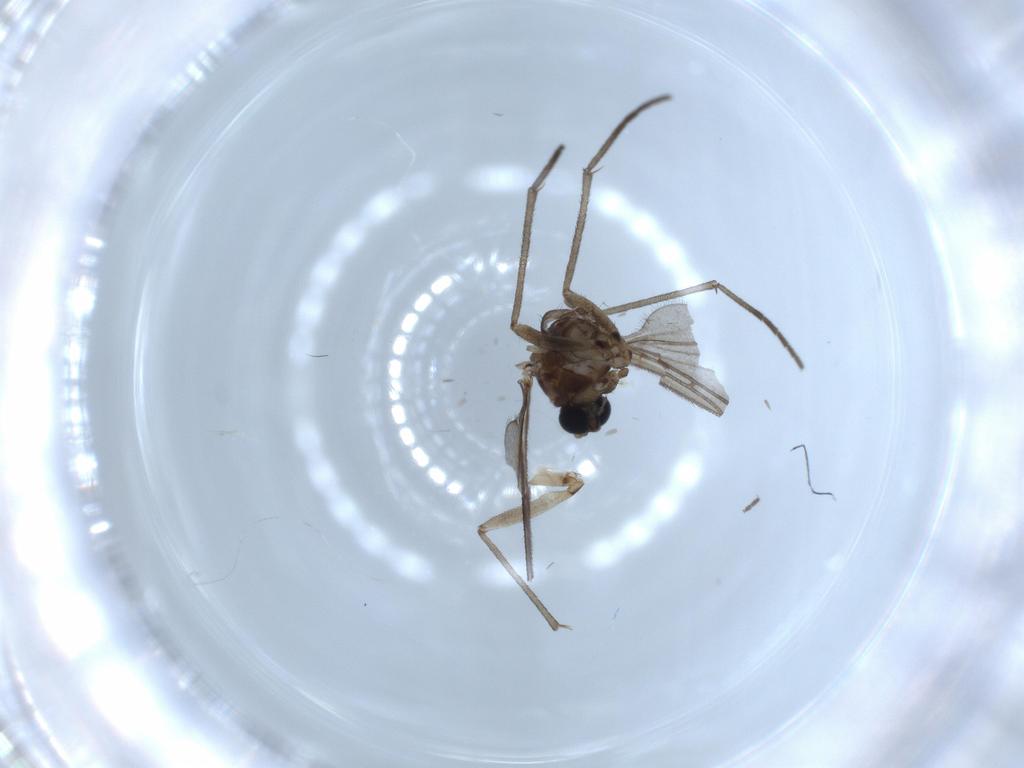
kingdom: Animalia
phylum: Arthropoda
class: Insecta
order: Diptera
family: Sciaridae
